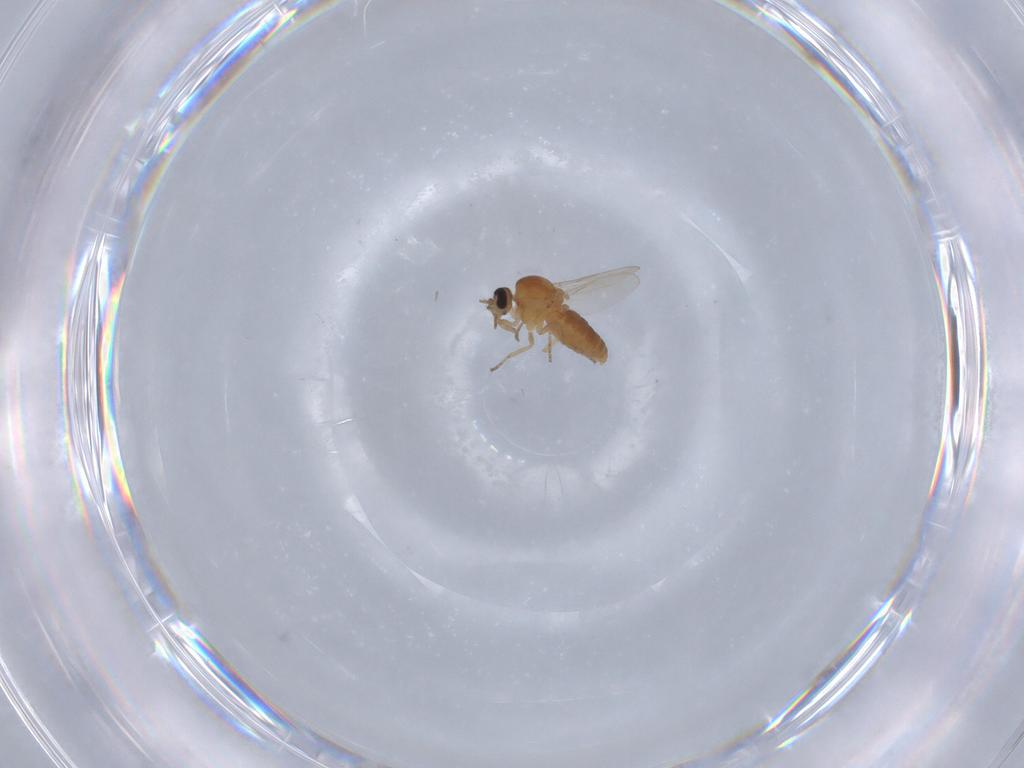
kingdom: Animalia
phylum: Arthropoda
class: Insecta
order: Diptera
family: Ceratopogonidae
